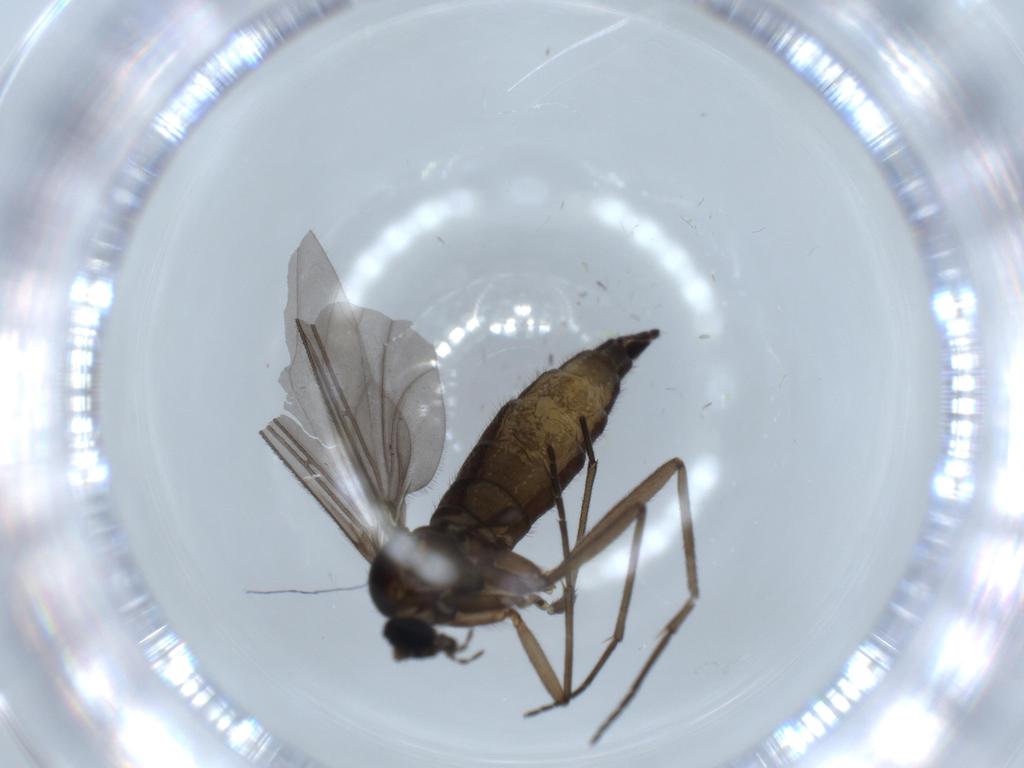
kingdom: Animalia
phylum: Arthropoda
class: Insecta
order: Diptera
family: Sciaridae
